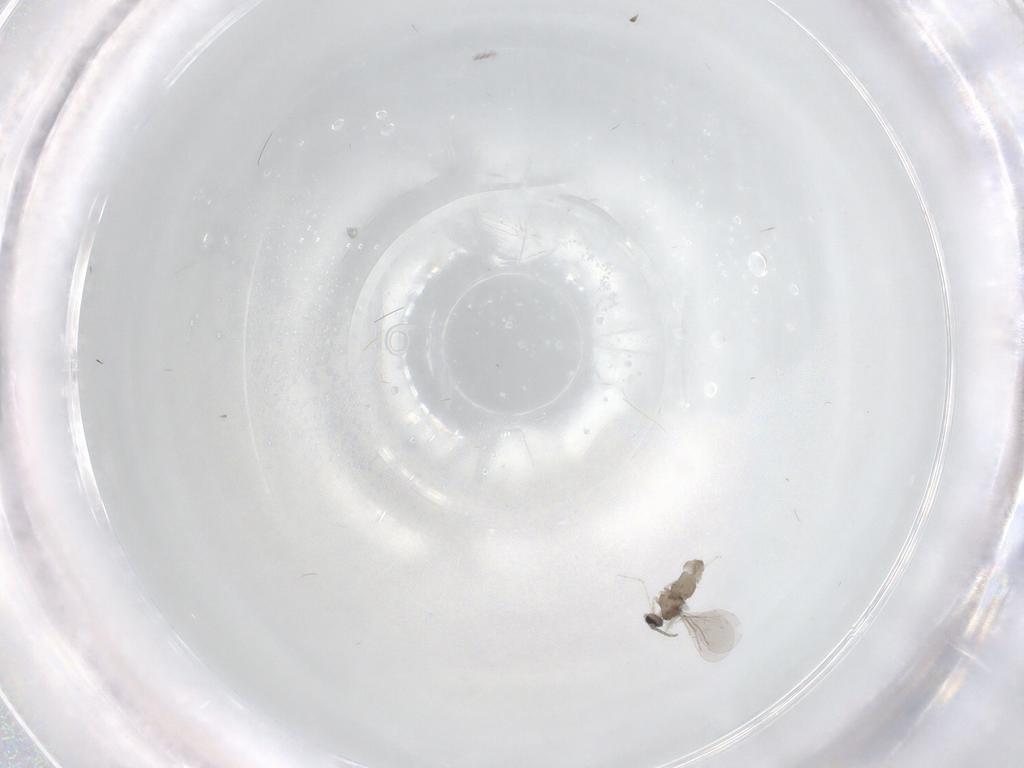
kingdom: Animalia
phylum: Arthropoda
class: Insecta
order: Diptera
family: Cecidomyiidae
